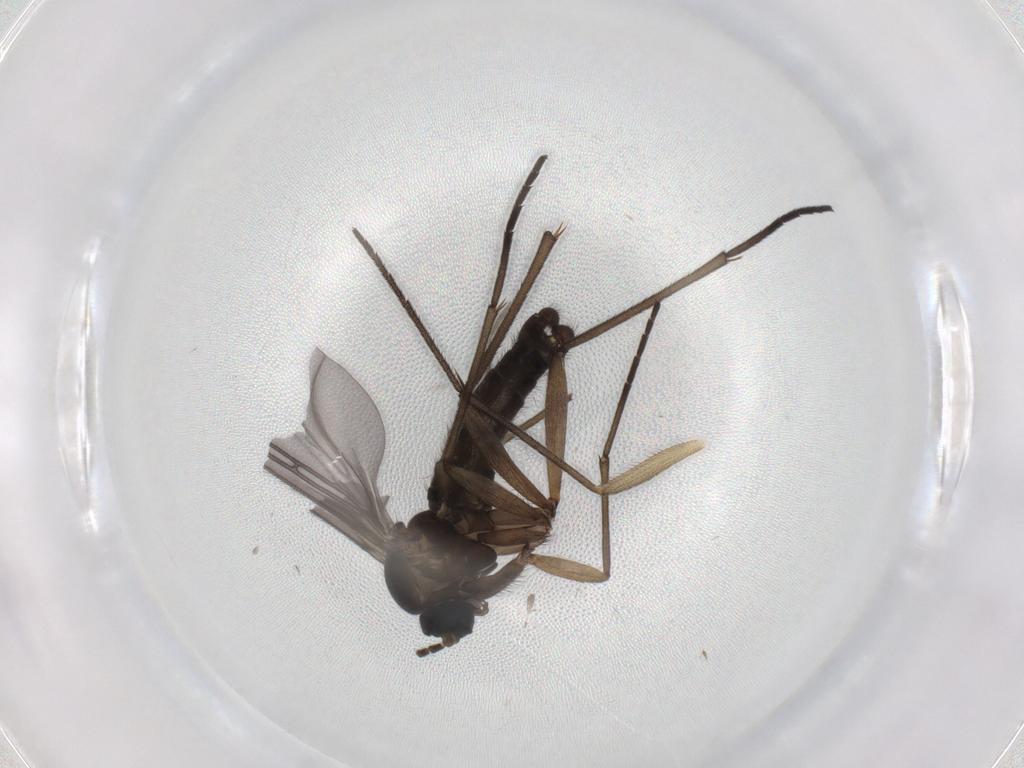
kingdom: Animalia
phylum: Arthropoda
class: Insecta
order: Diptera
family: Sciaridae
